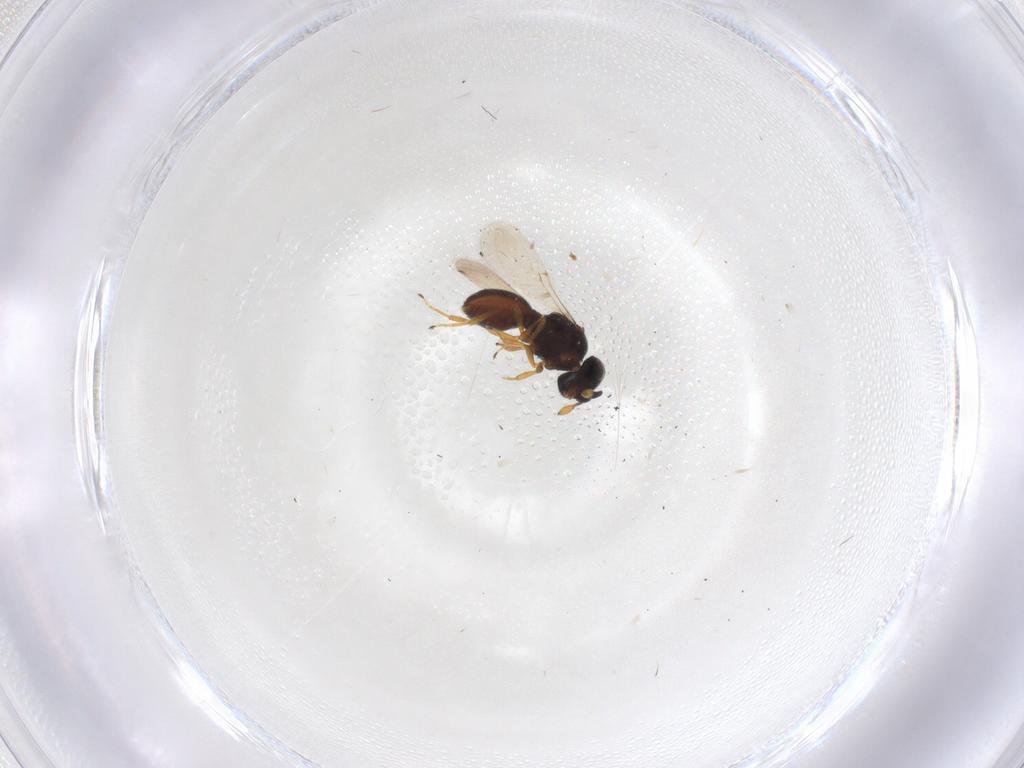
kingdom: Animalia
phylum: Arthropoda
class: Insecta
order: Hymenoptera
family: Scelionidae
